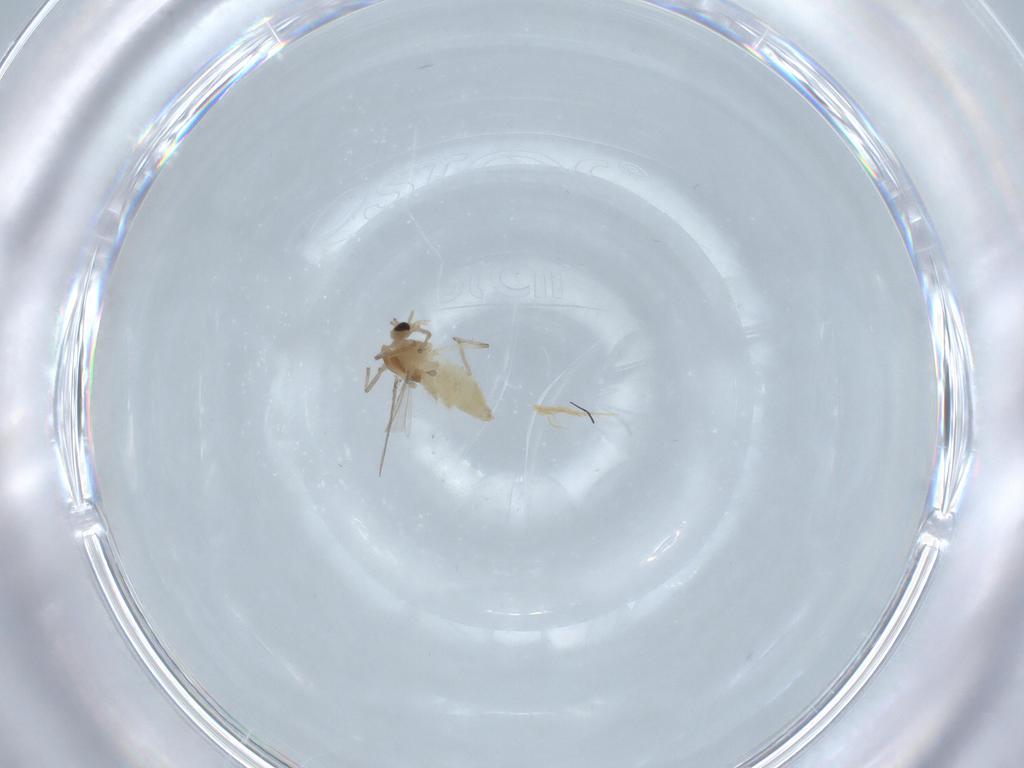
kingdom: Animalia
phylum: Arthropoda
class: Insecta
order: Diptera
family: Chironomidae
